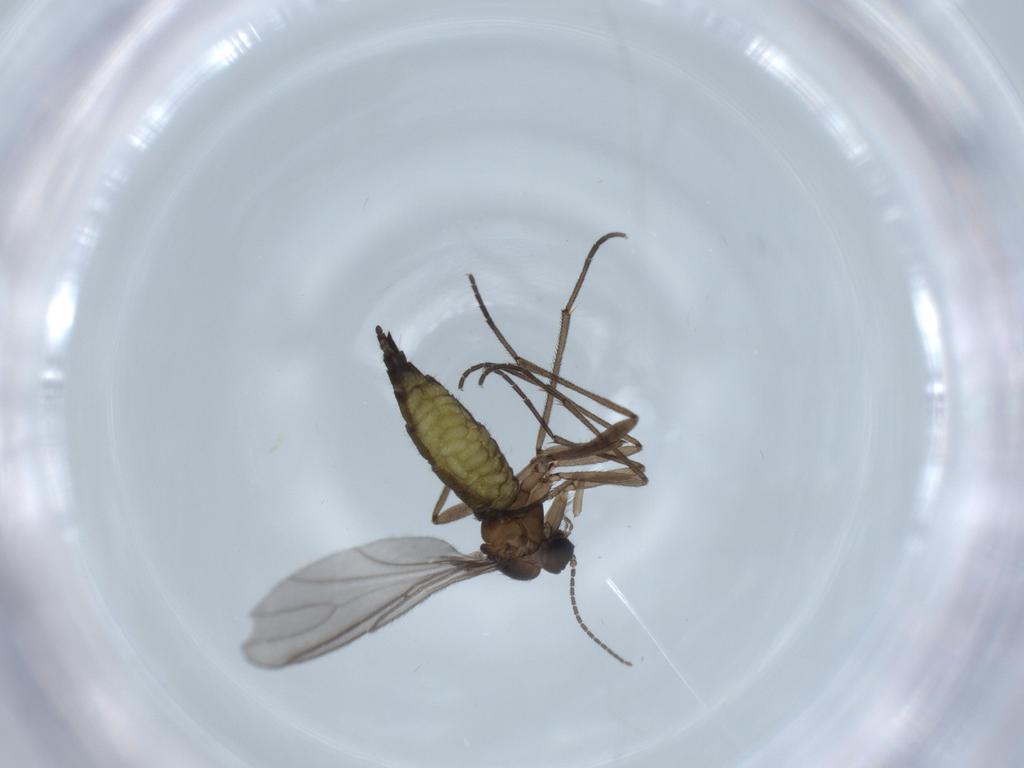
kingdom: Animalia
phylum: Arthropoda
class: Insecta
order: Diptera
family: Sciaridae
